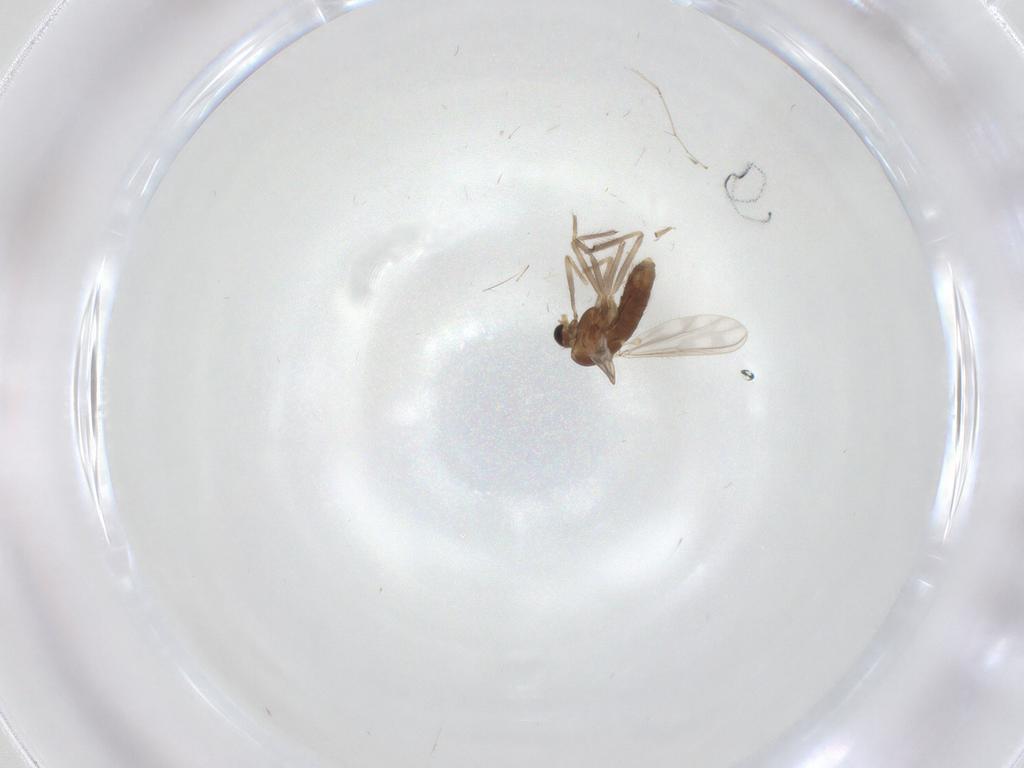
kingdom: Animalia
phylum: Arthropoda
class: Insecta
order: Diptera
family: Chironomidae
